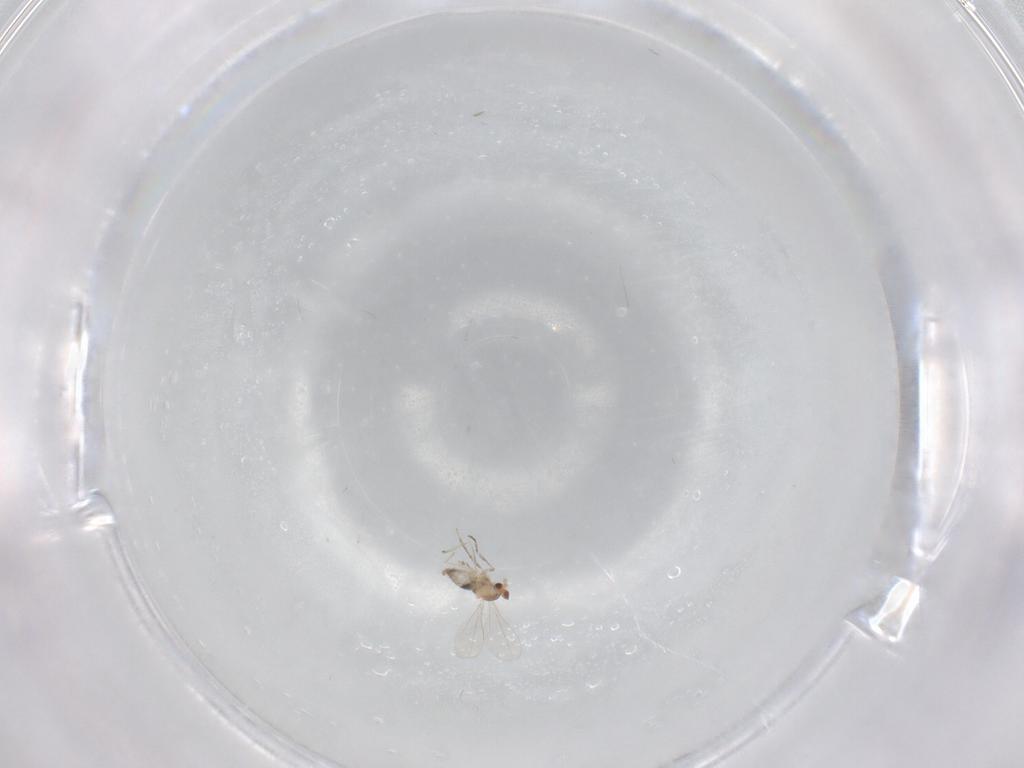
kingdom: Animalia
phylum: Arthropoda
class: Insecta
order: Diptera
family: Cecidomyiidae
